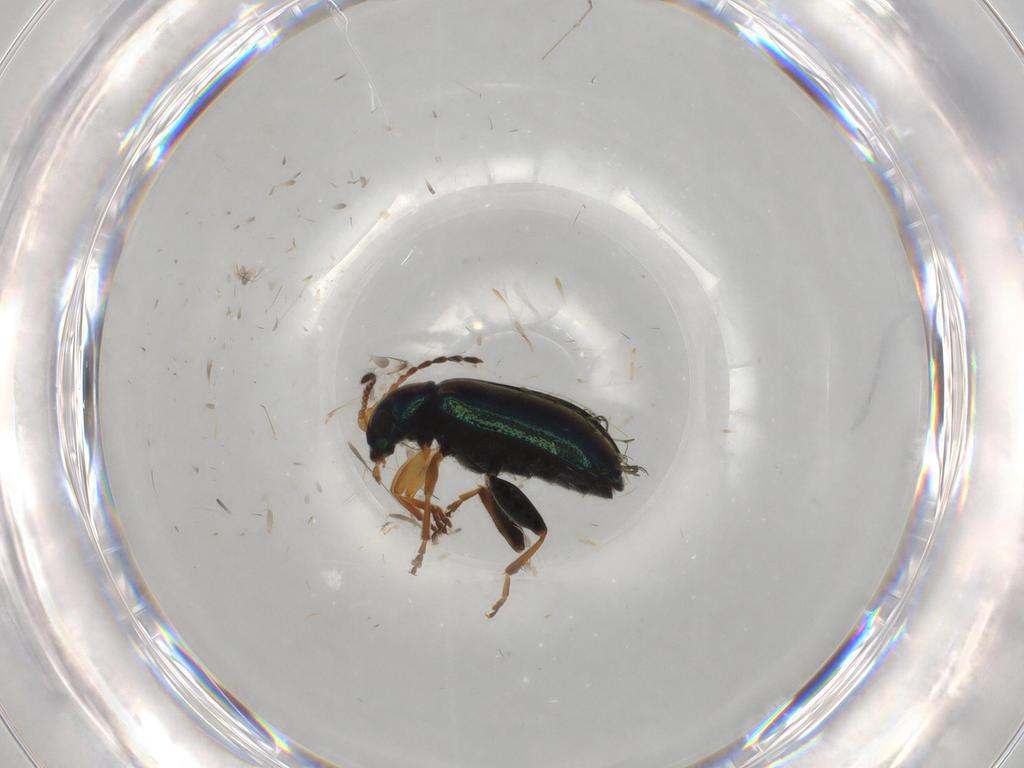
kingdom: Animalia
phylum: Arthropoda
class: Insecta
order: Coleoptera
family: Chrysomelidae
